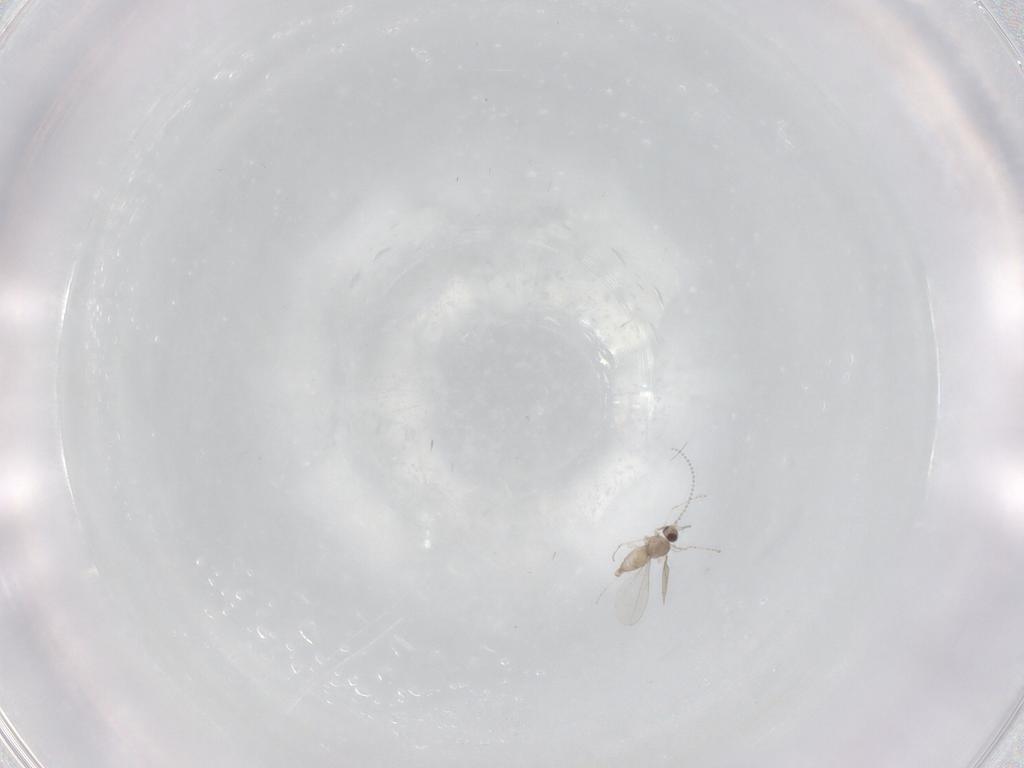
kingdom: Animalia
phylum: Arthropoda
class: Insecta
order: Diptera
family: Cecidomyiidae
